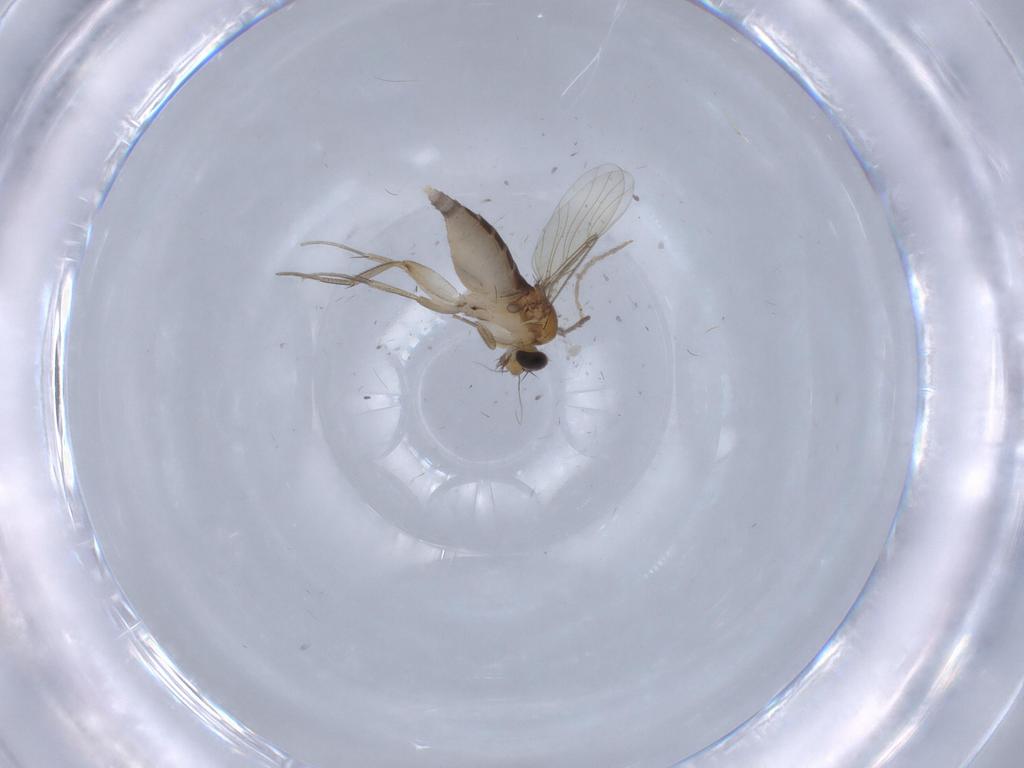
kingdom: Animalia
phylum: Arthropoda
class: Insecta
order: Diptera
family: Phoridae
